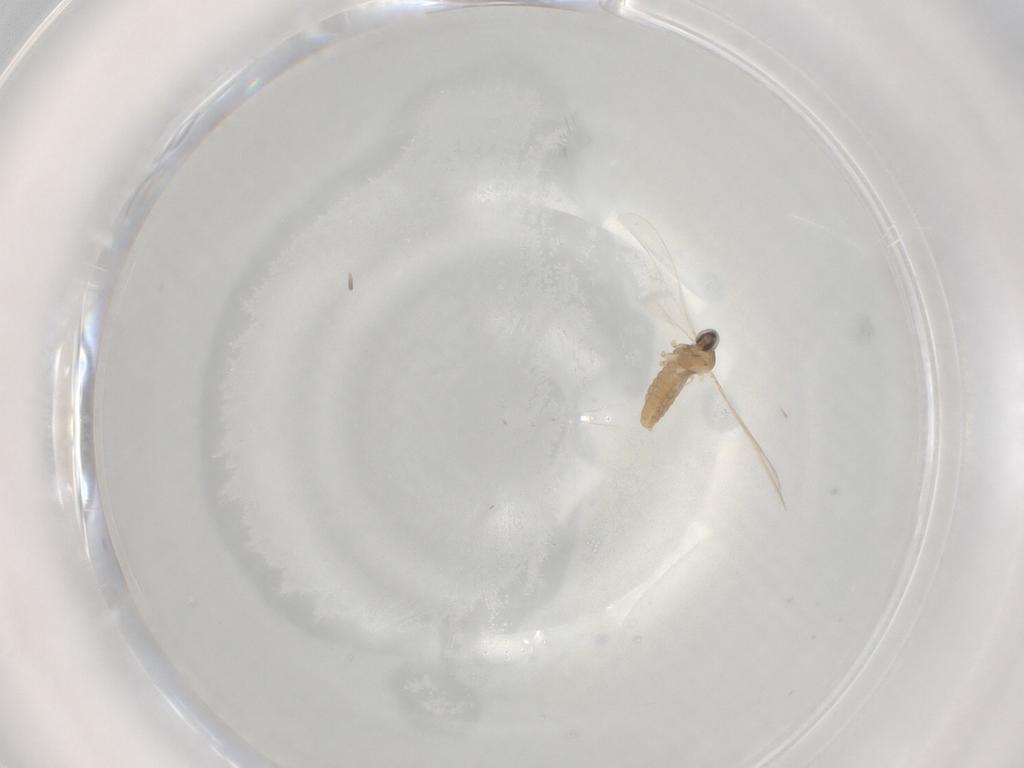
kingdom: Animalia
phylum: Arthropoda
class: Insecta
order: Diptera
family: Cecidomyiidae
